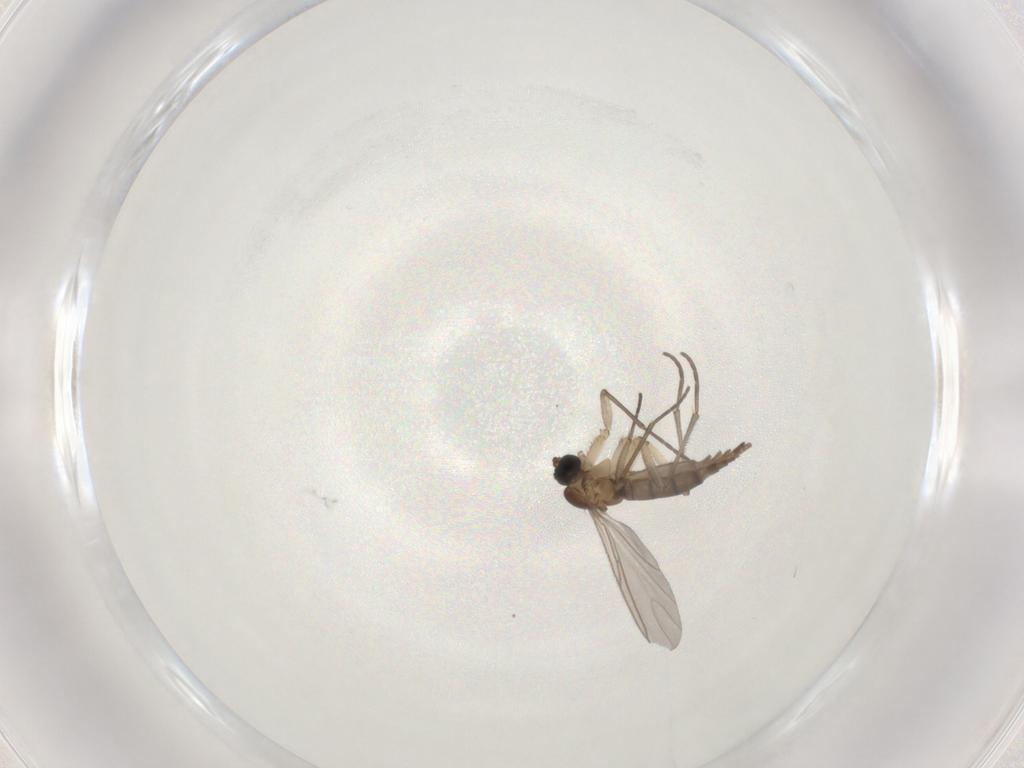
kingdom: Animalia
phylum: Arthropoda
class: Insecta
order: Diptera
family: Sciaridae
